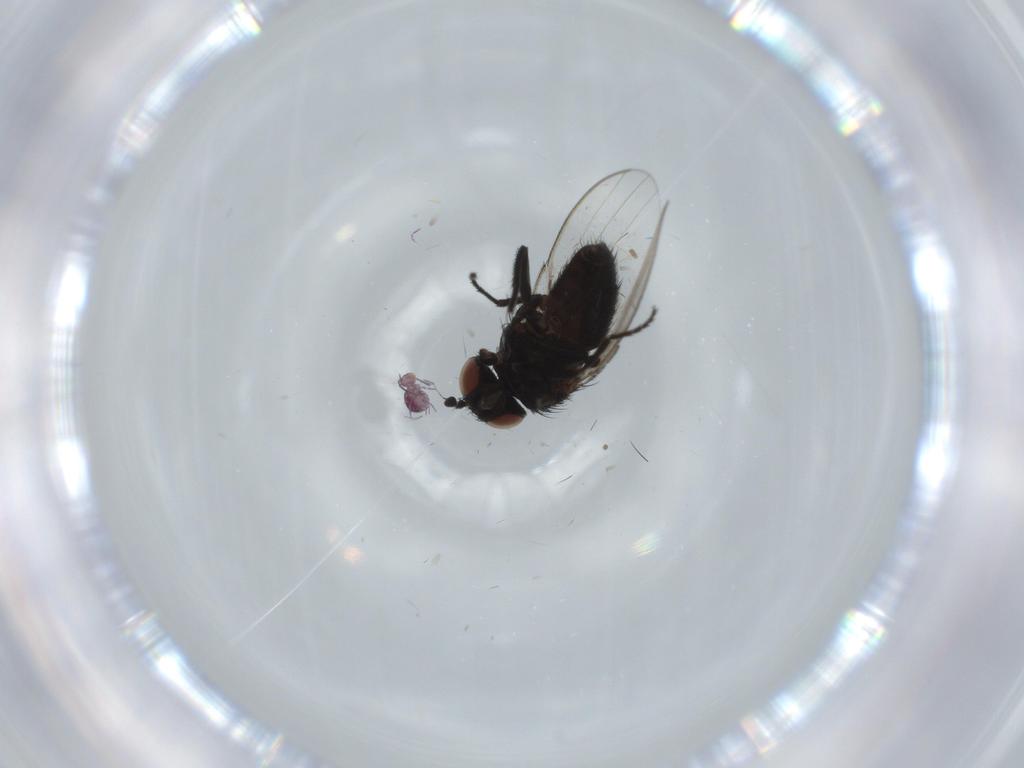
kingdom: Animalia
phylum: Arthropoda
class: Collembola
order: Symphypleona
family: Sminthurididae
